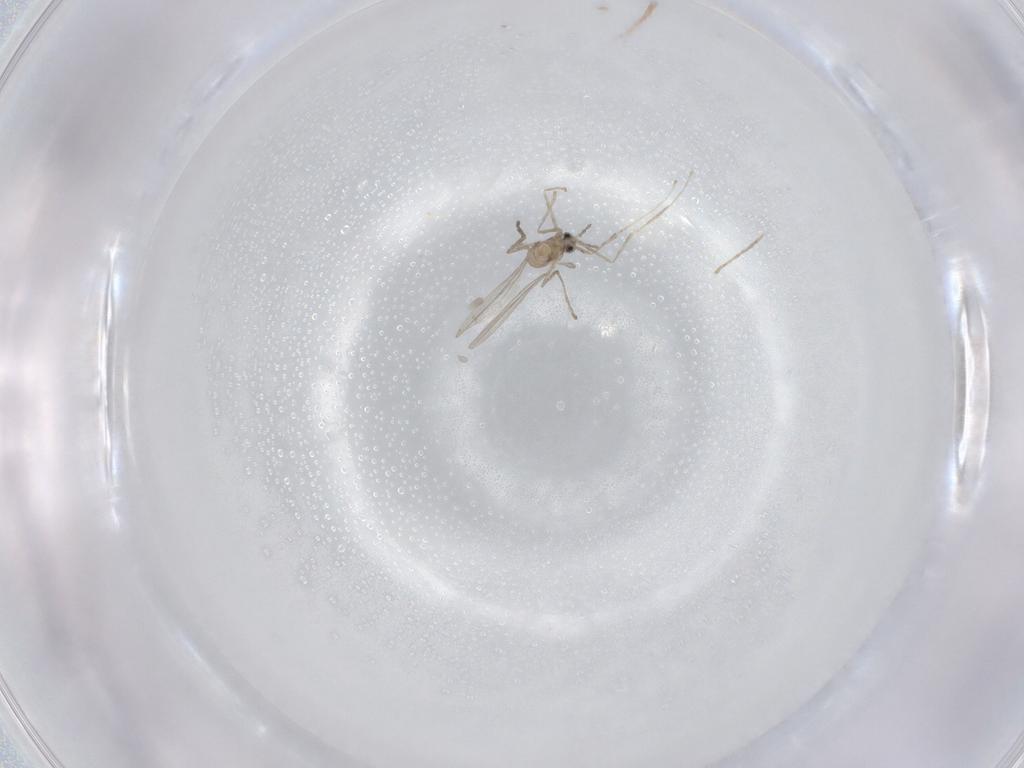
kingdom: Animalia
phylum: Arthropoda
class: Insecta
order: Diptera
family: Cecidomyiidae
